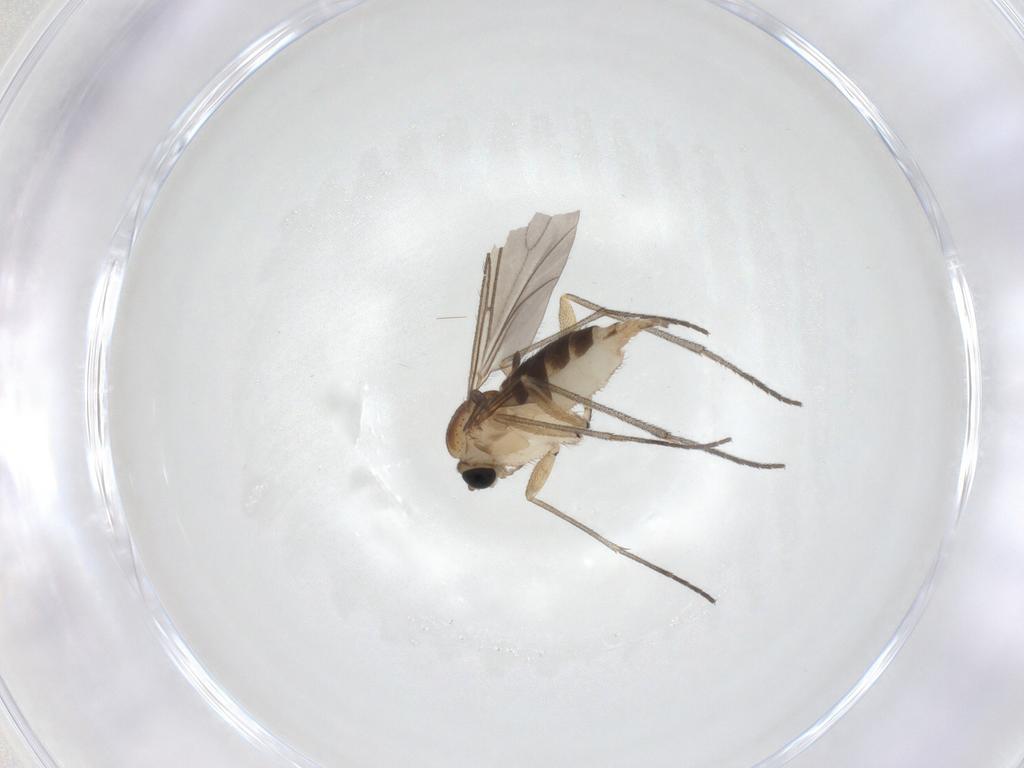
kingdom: Animalia
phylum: Arthropoda
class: Insecta
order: Diptera
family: Sciaridae
